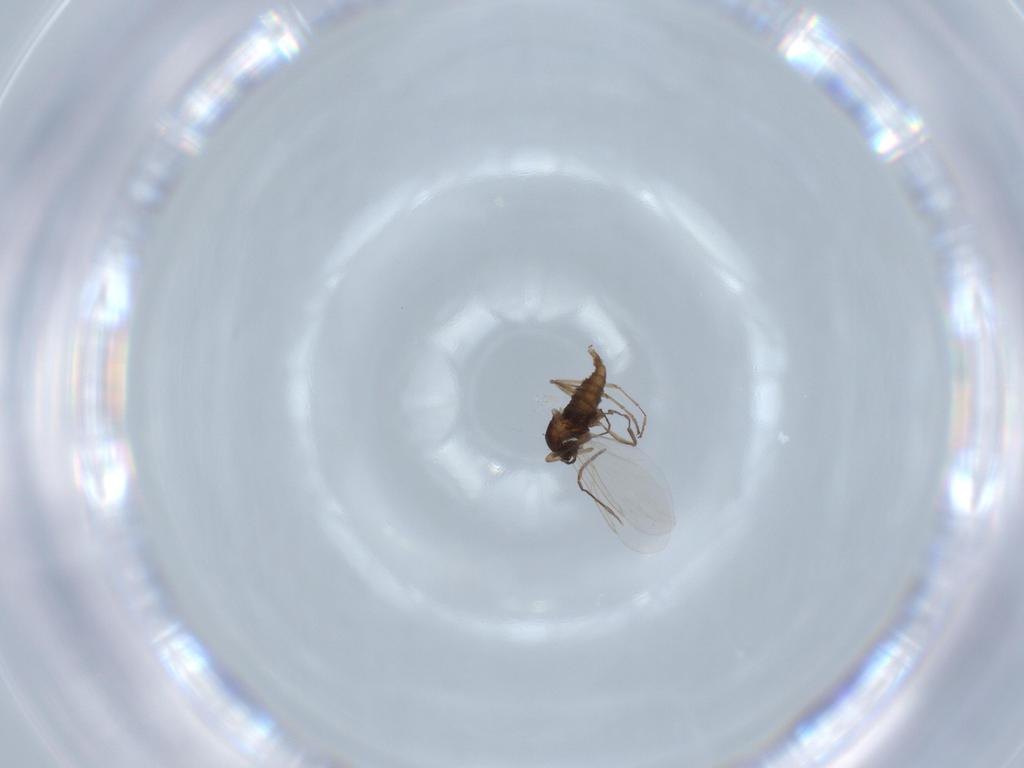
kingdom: Animalia
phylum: Arthropoda
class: Insecta
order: Diptera
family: Cecidomyiidae
